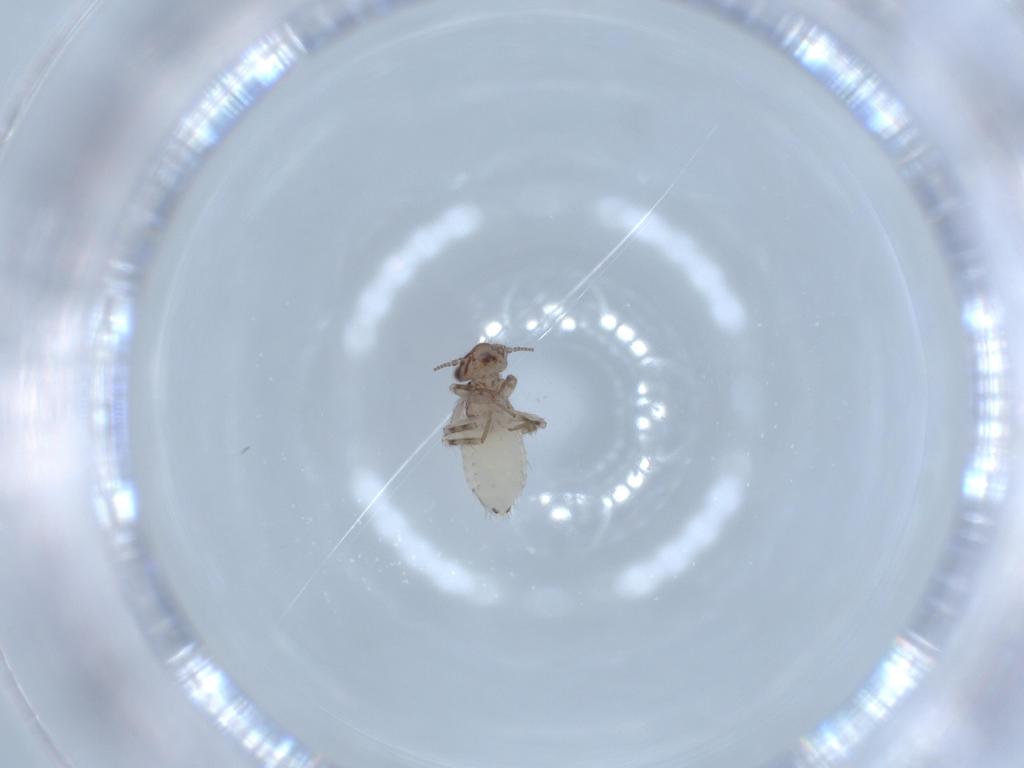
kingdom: Animalia
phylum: Arthropoda
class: Insecta
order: Psocodea
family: Lepidopsocidae
